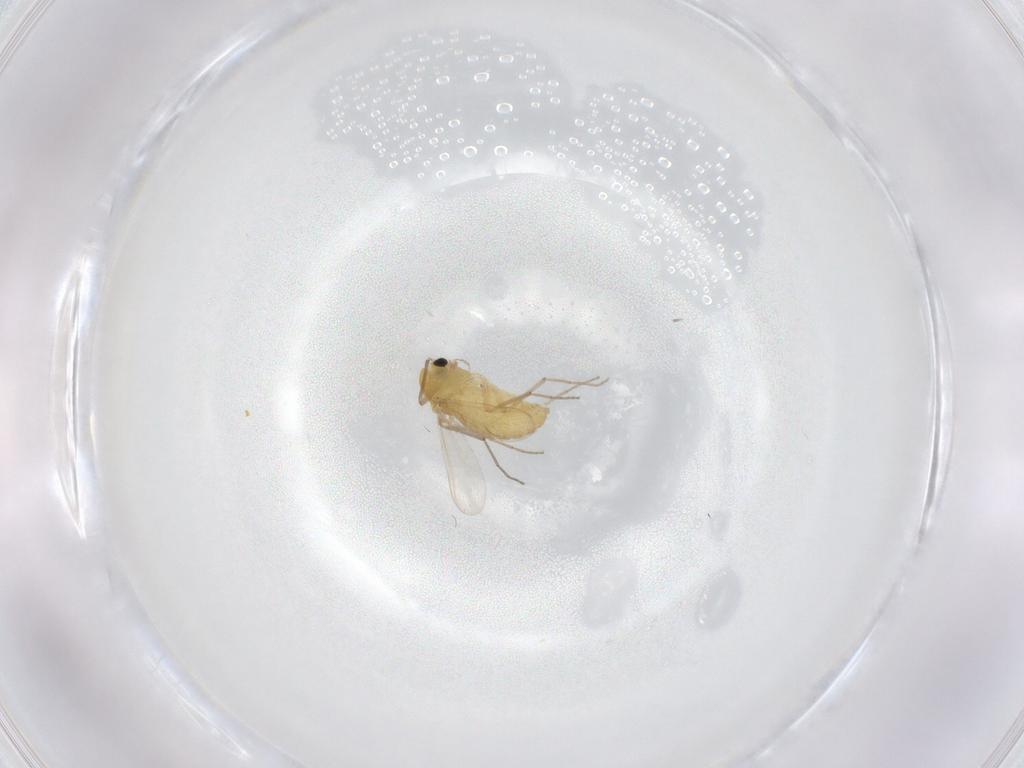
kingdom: Animalia
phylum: Arthropoda
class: Insecta
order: Diptera
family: Chironomidae
